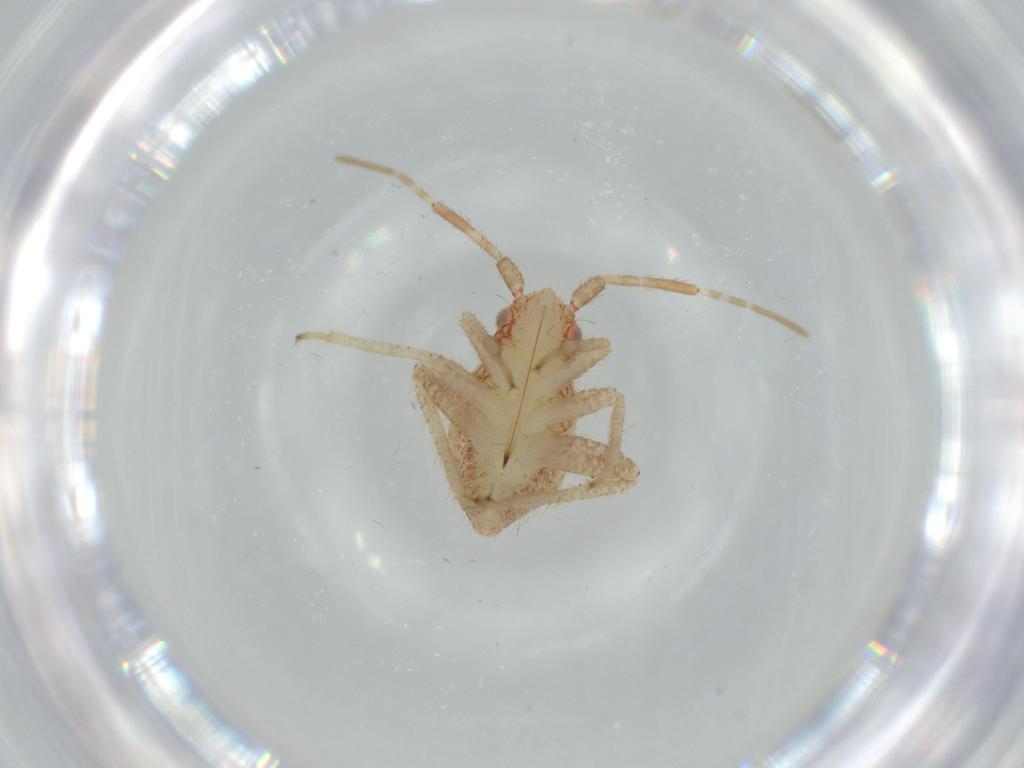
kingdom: Animalia
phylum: Arthropoda
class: Insecta
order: Hemiptera
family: Miridae
